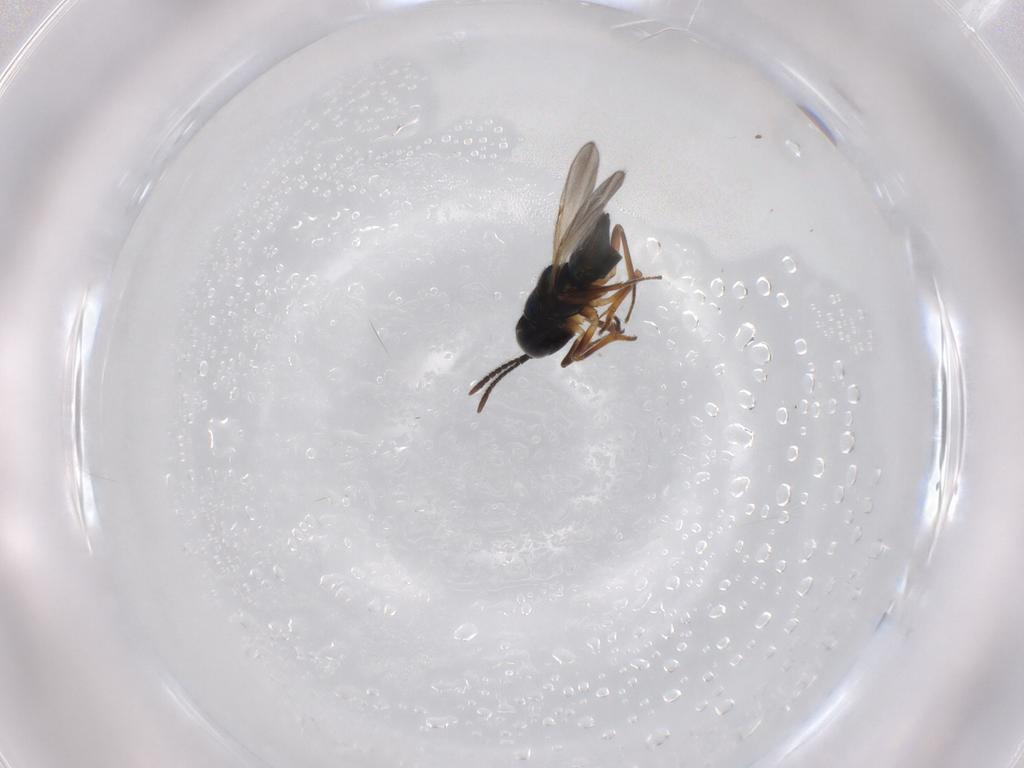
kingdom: Animalia
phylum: Arthropoda
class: Insecta
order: Hymenoptera
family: Encyrtidae
